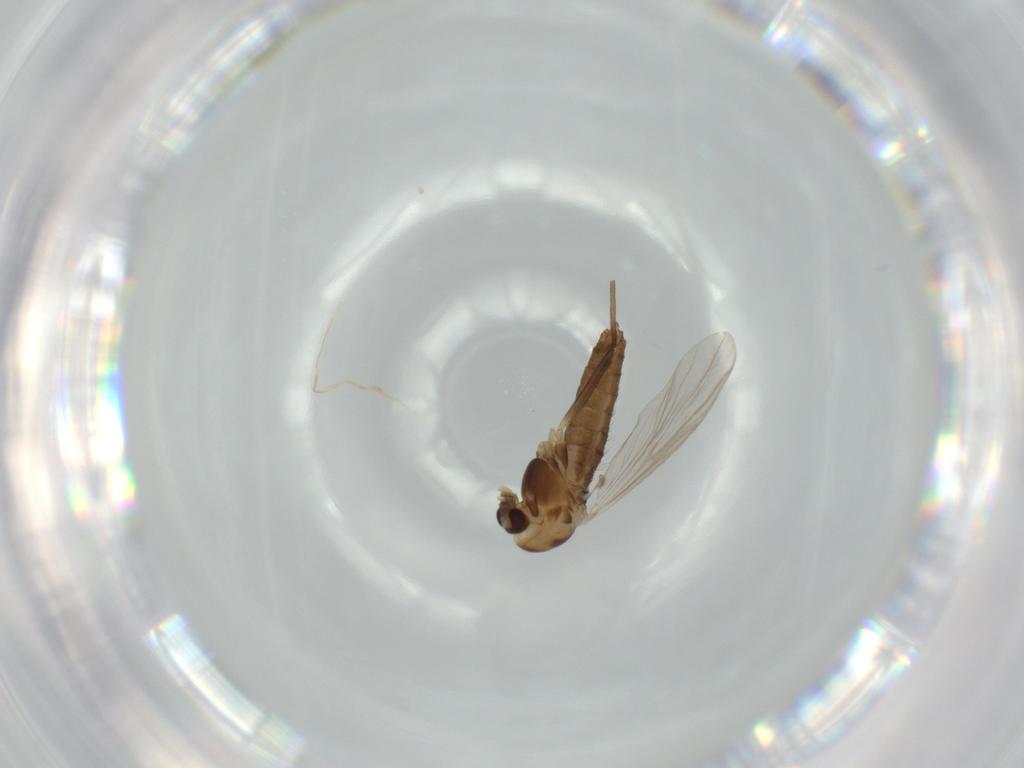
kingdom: Animalia
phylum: Arthropoda
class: Insecta
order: Diptera
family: Chironomidae
